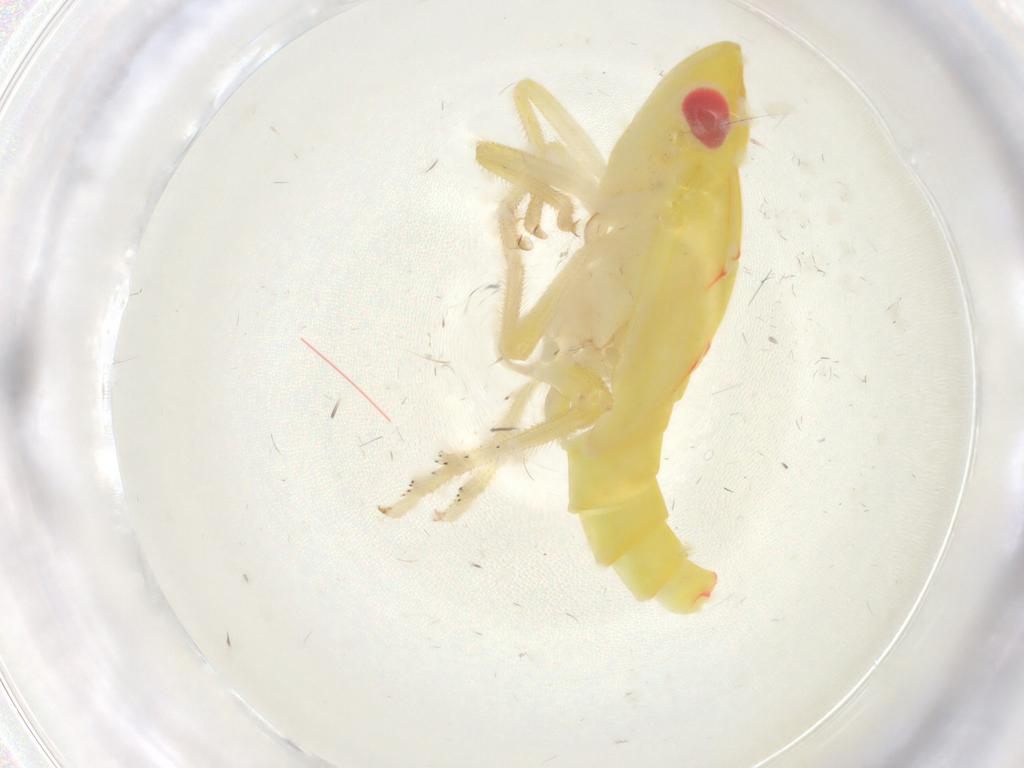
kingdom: Animalia
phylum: Arthropoda
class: Insecta
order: Hemiptera
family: Tropiduchidae
